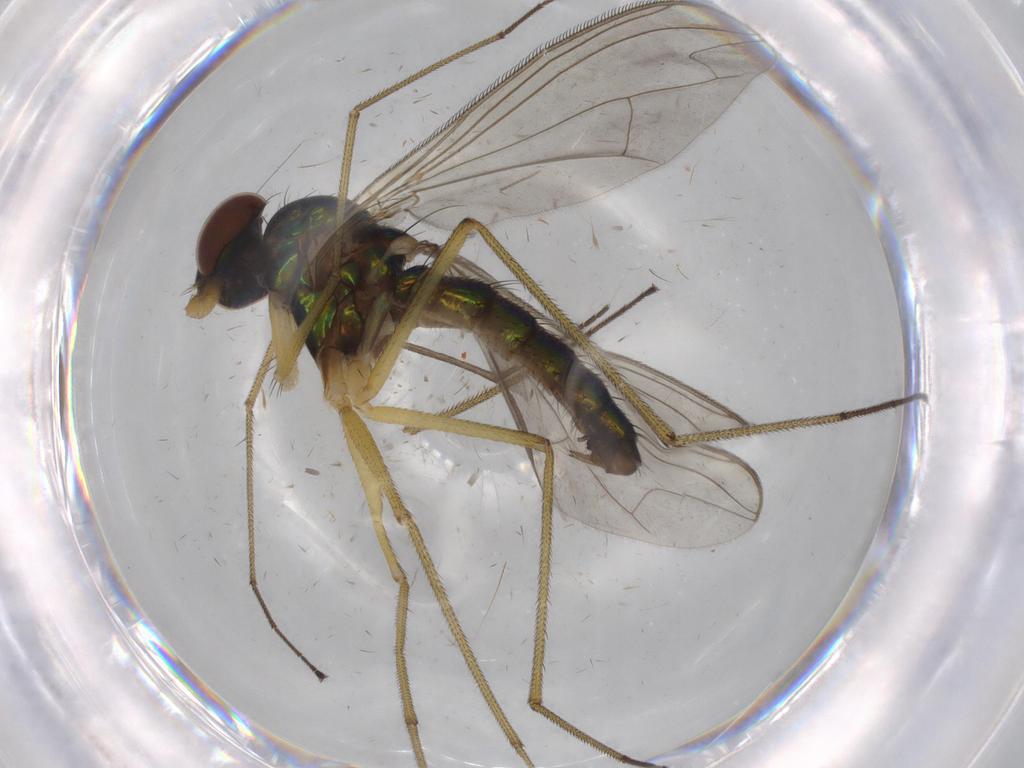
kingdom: Animalia
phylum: Arthropoda
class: Insecta
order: Diptera
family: Dolichopodidae
